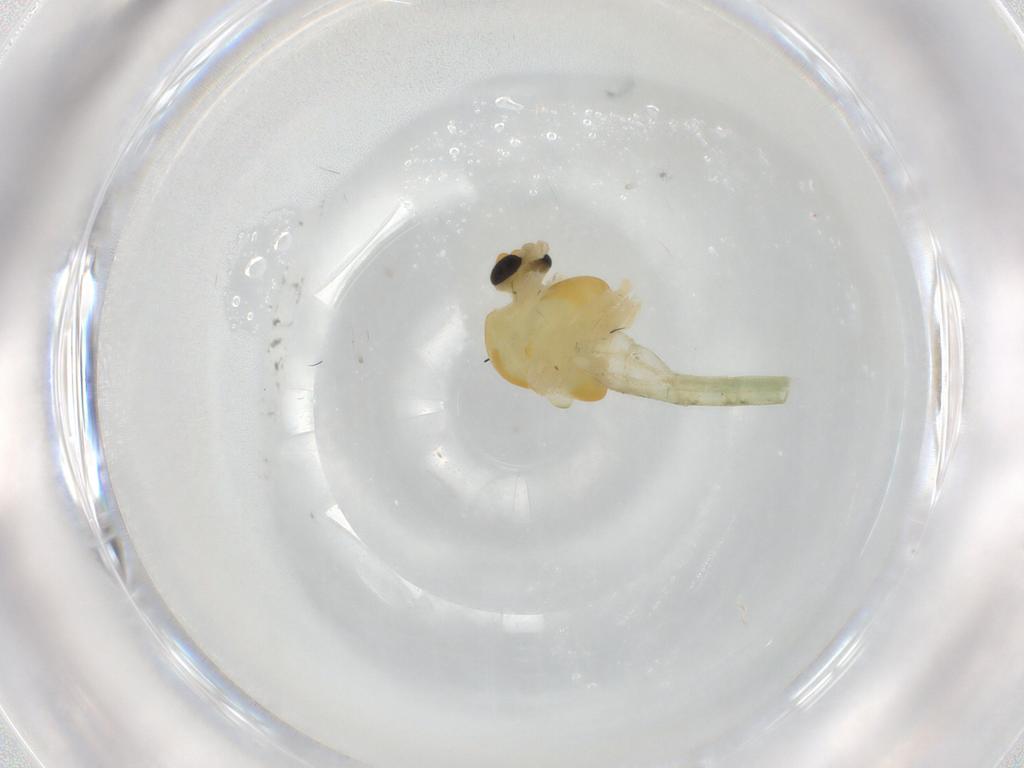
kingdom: Animalia
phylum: Arthropoda
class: Insecta
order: Diptera
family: Chironomidae
